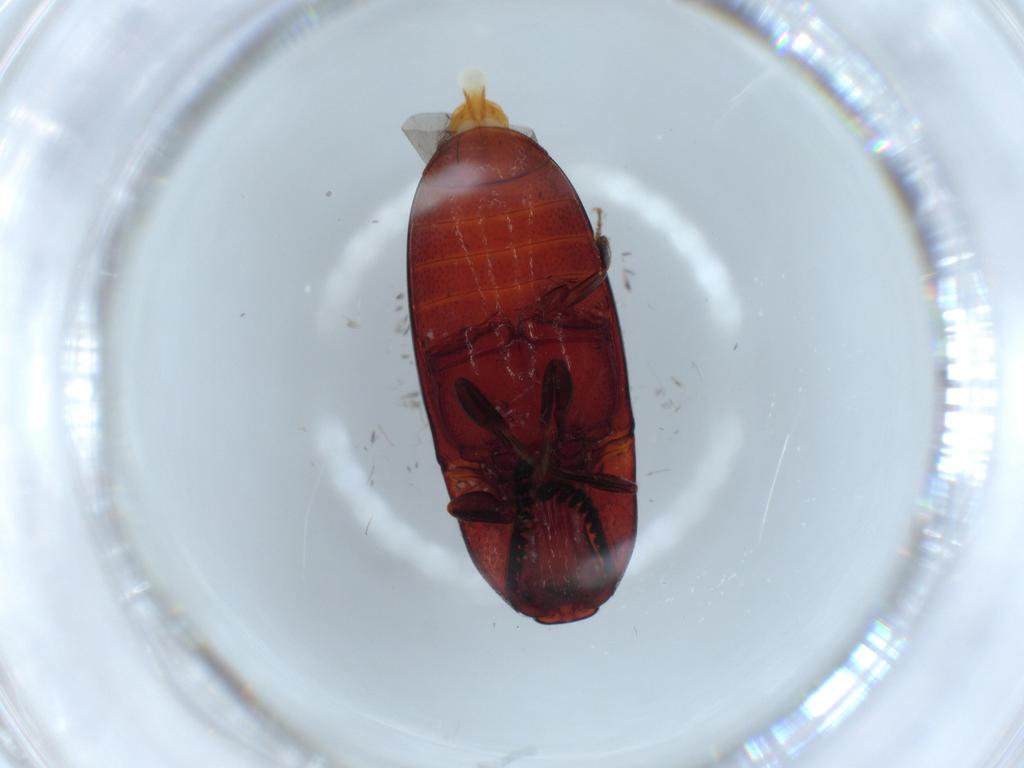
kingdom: Animalia
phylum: Arthropoda
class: Insecta
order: Coleoptera
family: Elateridae
